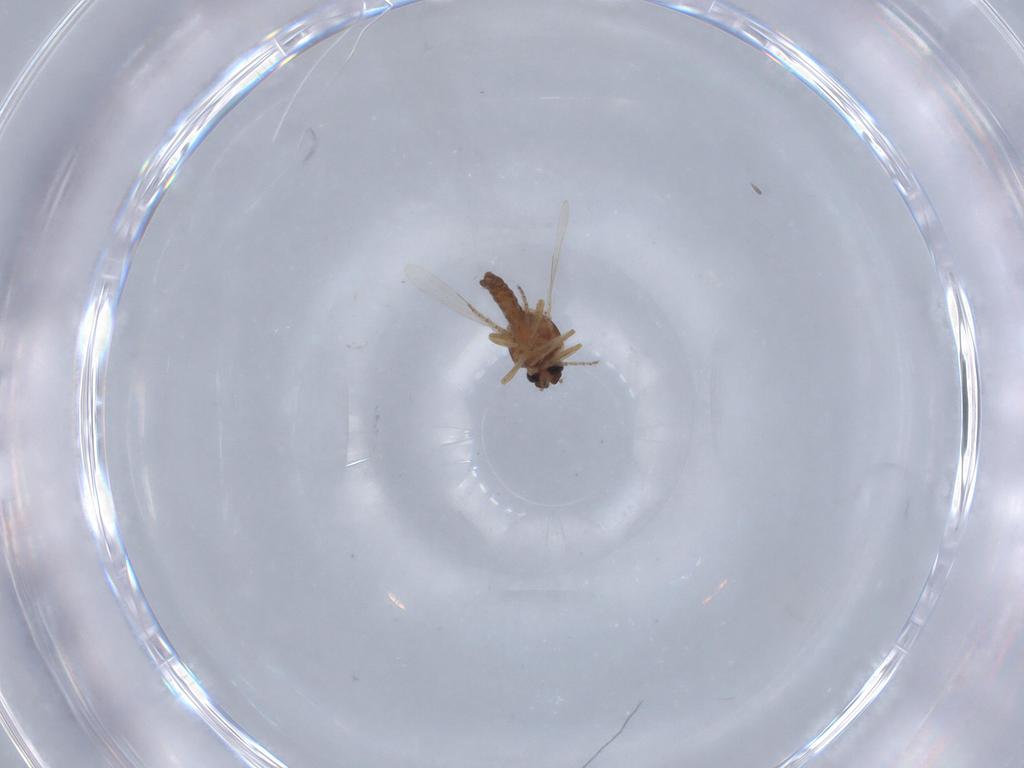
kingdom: Animalia
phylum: Arthropoda
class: Insecta
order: Diptera
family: Ceratopogonidae
